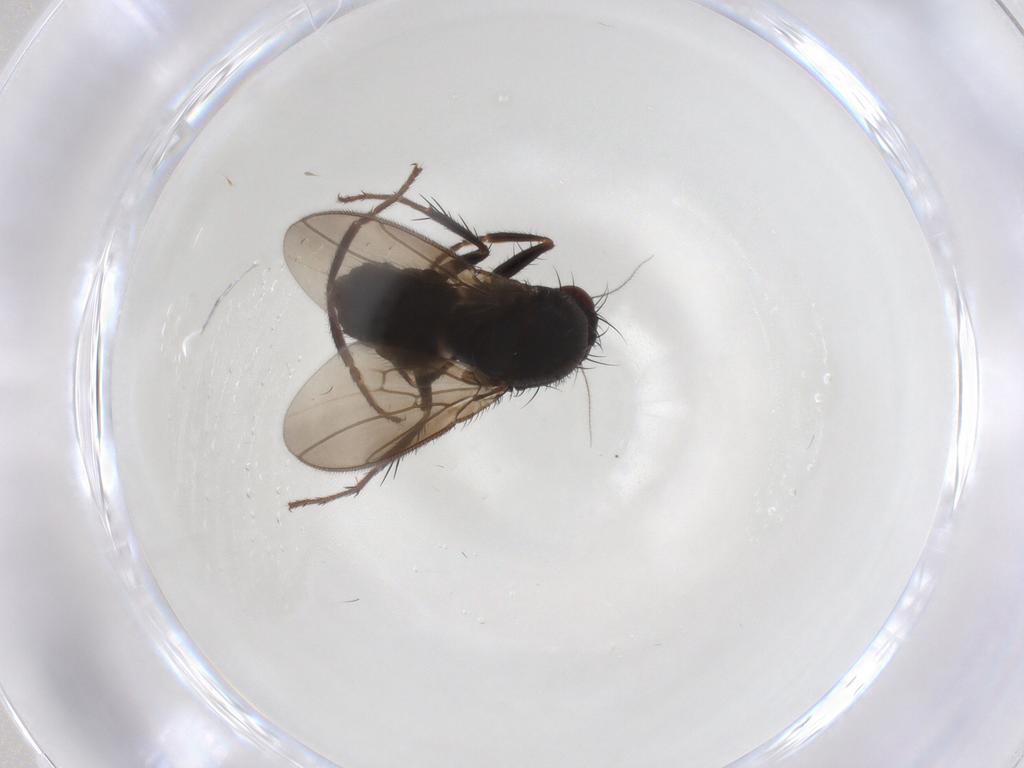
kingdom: Animalia
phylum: Arthropoda
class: Insecta
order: Diptera
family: Sphaeroceridae
